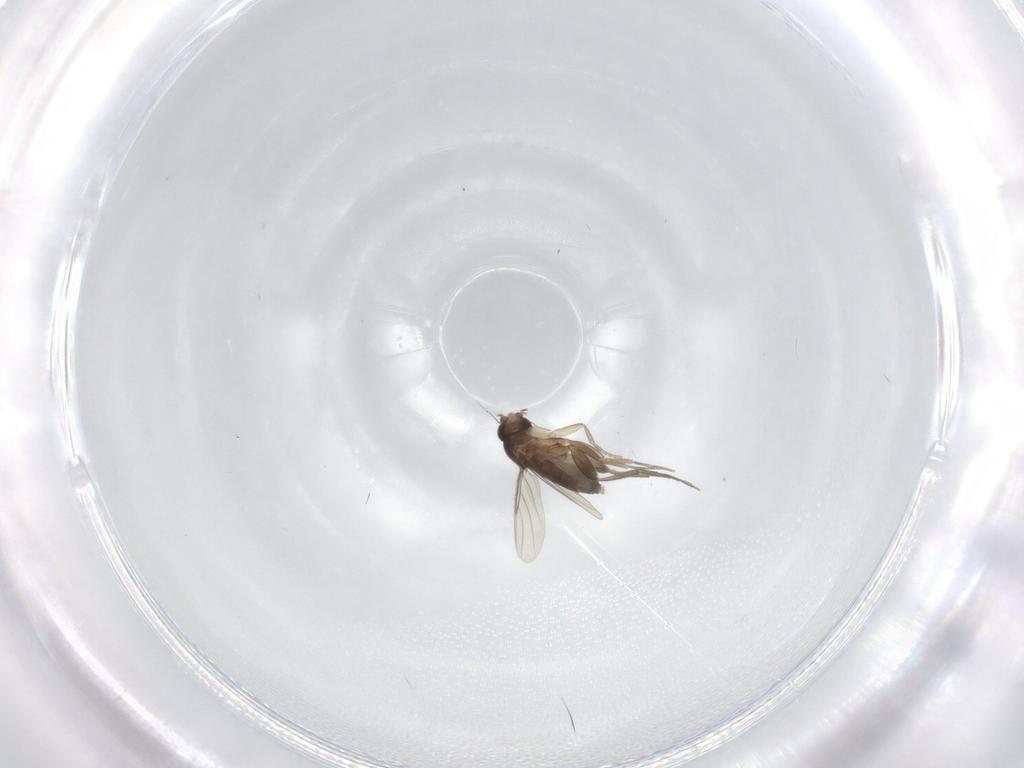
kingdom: Animalia
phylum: Arthropoda
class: Insecta
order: Diptera
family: Phoridae
